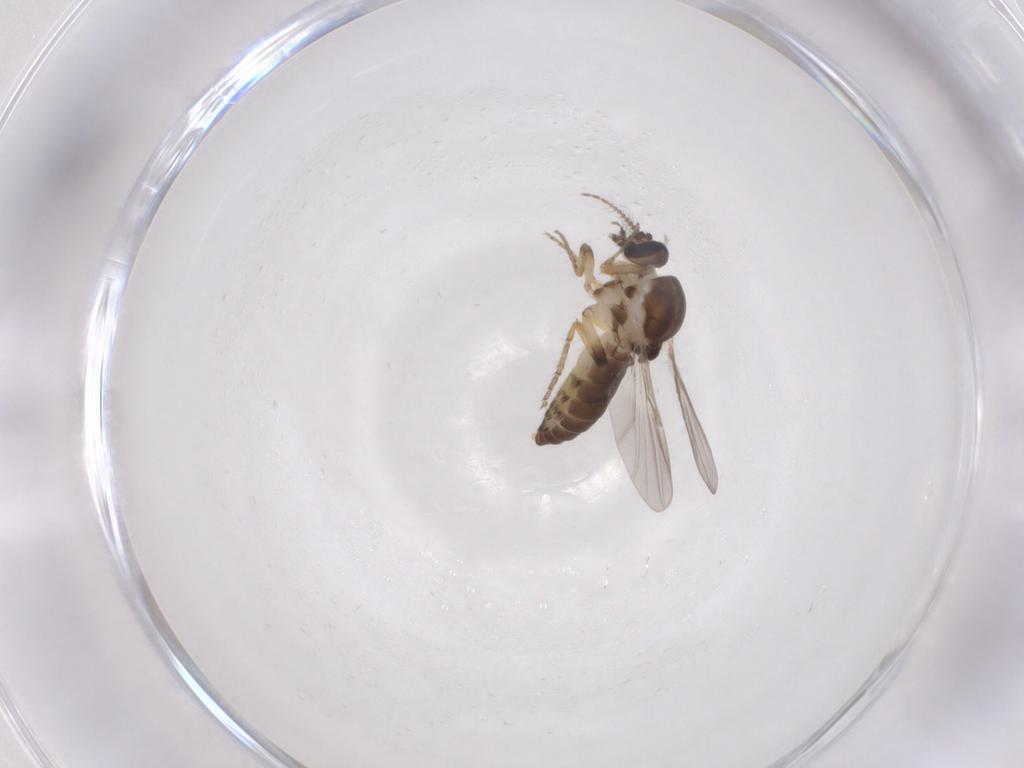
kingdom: Animalia
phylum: Arthropoda
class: Insecta
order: Diptera
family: Ceratopogonidae
